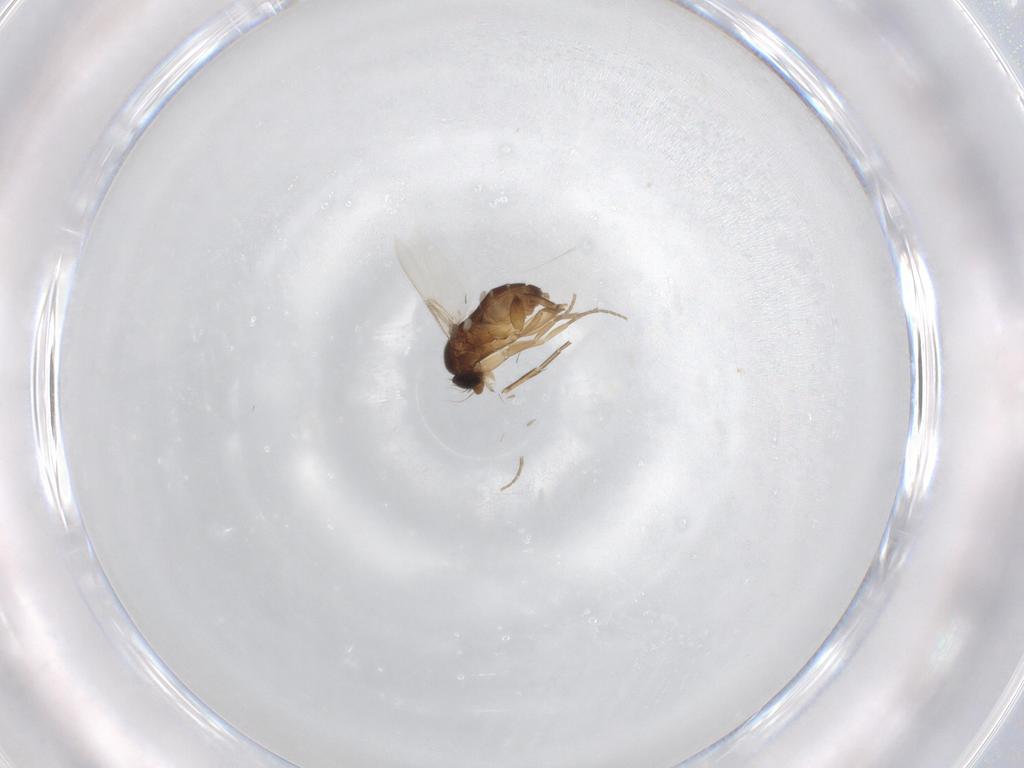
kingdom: Animalia
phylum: Arthropoda
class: Insecta
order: Diptera
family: Ceratopogonidae
